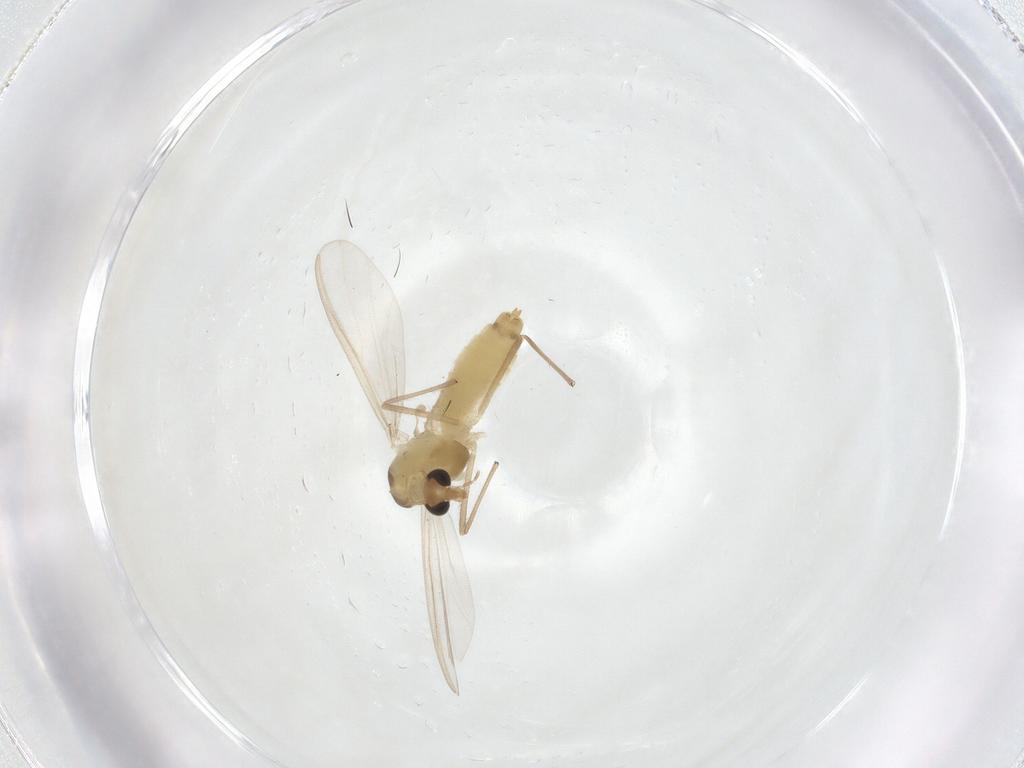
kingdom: Animalia
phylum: Arthropoda
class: Insecta
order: Diptera
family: Chironomidae
